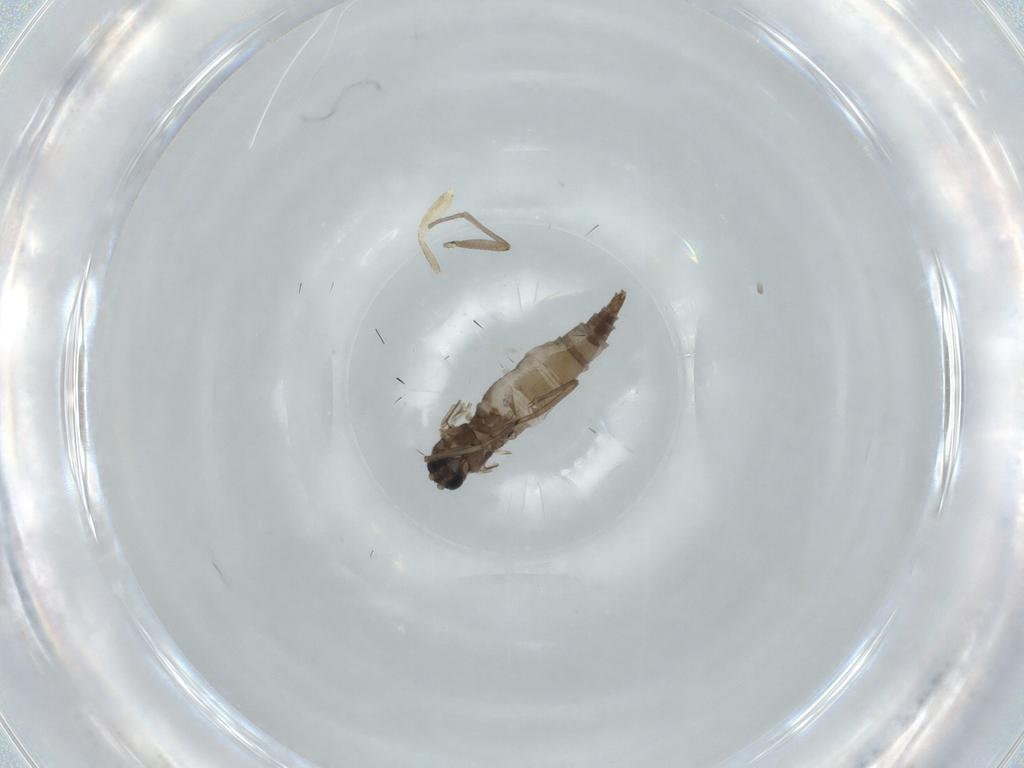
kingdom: Animalia
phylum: Arthropoda
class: Insecta
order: Diptera
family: Sciaridae
